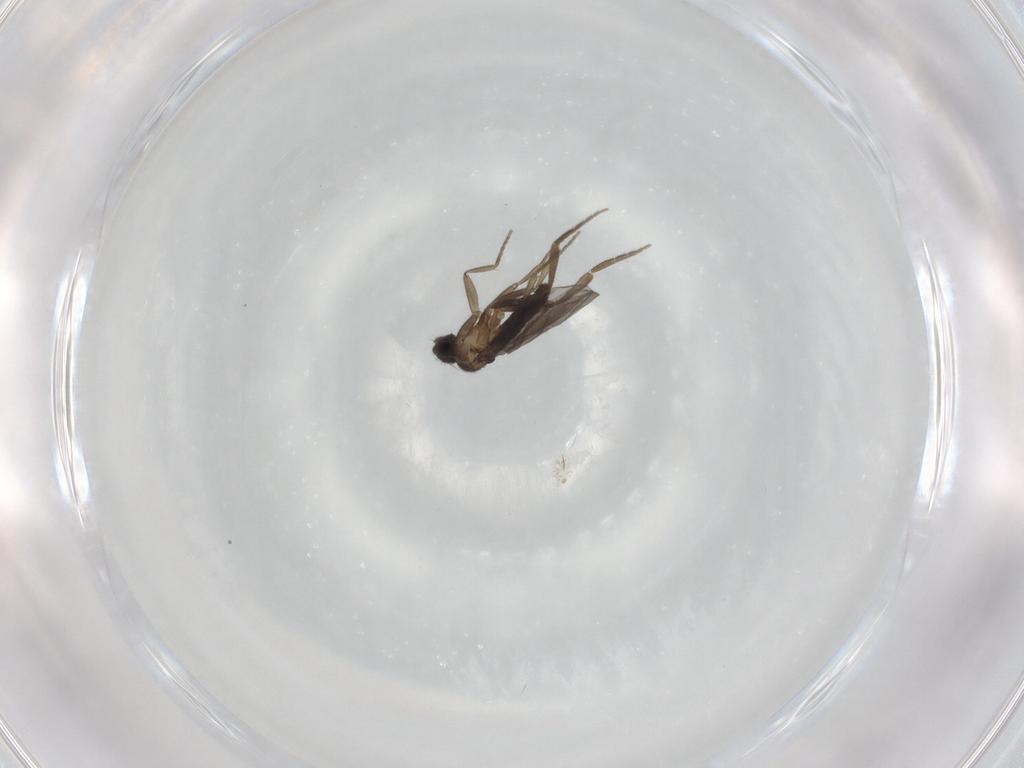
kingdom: Animalia
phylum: Arthropoda
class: Insecta
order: Diptera
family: Phoridae
